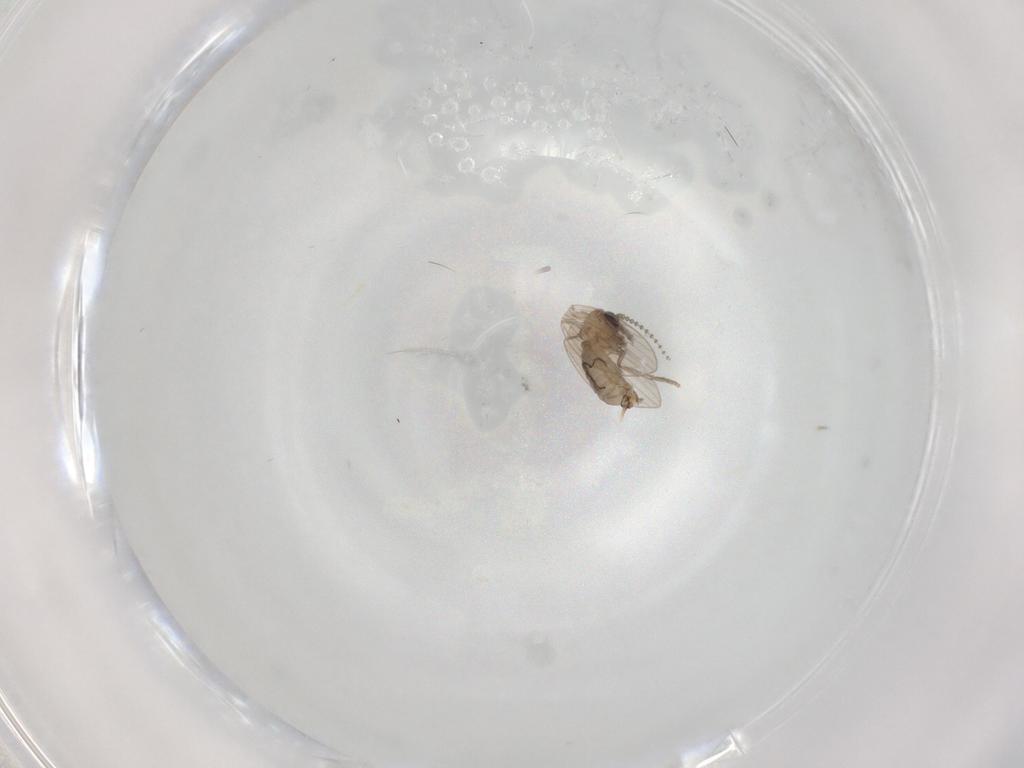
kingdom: Animalia
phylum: Arthropoda
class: Insecta
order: Diptera
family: Psychodidae
